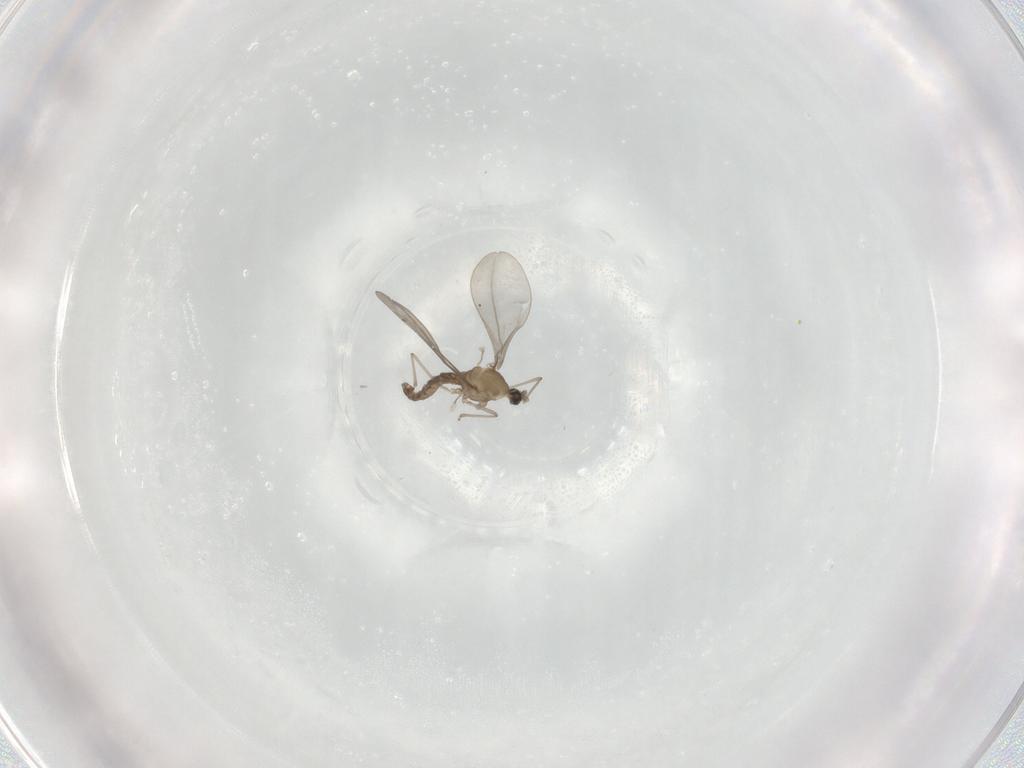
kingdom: Animalia
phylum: Arthropoda
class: Insecta
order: Diptera
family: Cecidomyiidae
